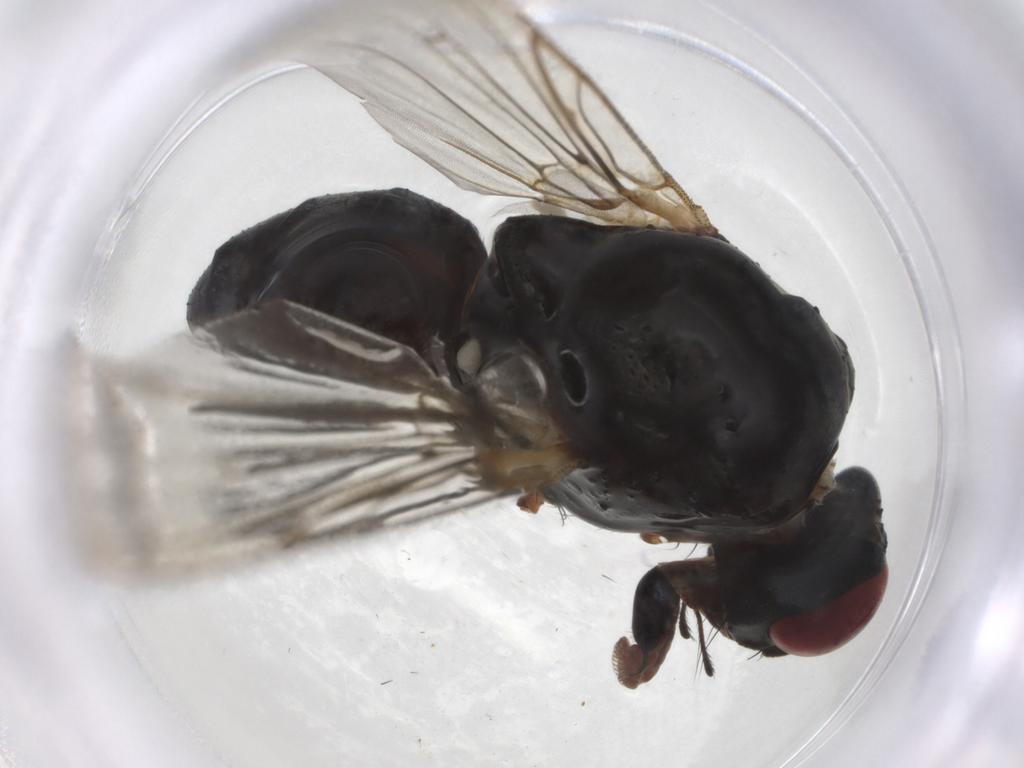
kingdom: Animalia
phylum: Arthropoda
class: Insecta
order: Diptera
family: Anthomyiidae
